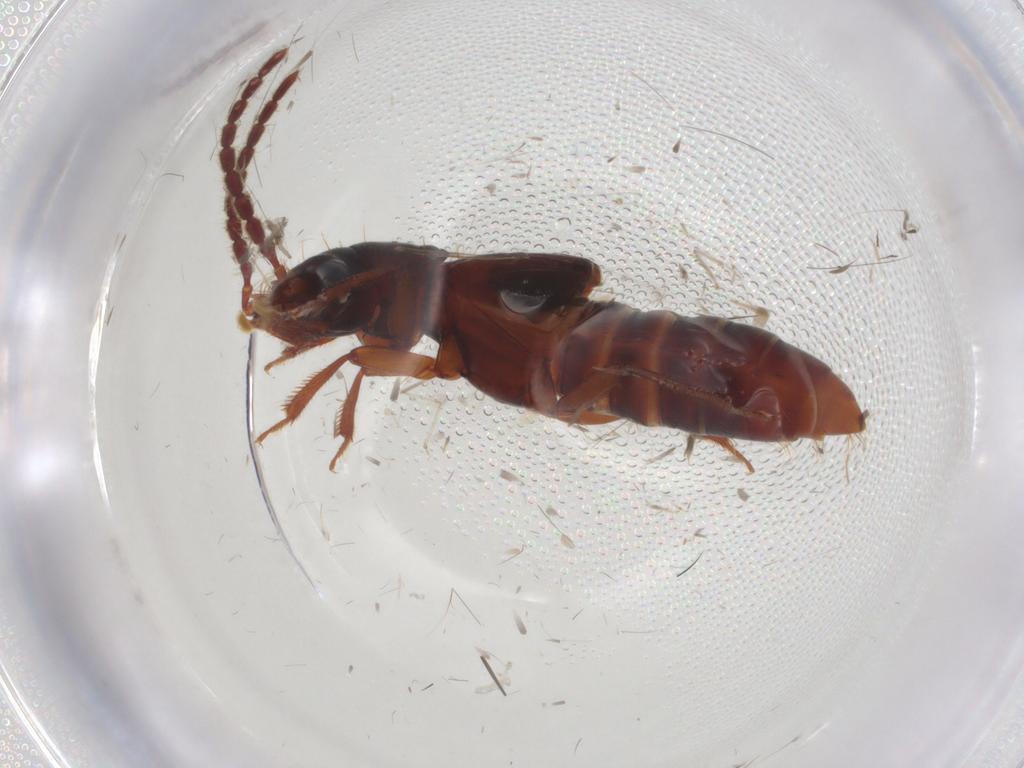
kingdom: Animalia
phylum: Arthropoda
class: Insecta
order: Coleoptera
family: Staphylinidae
